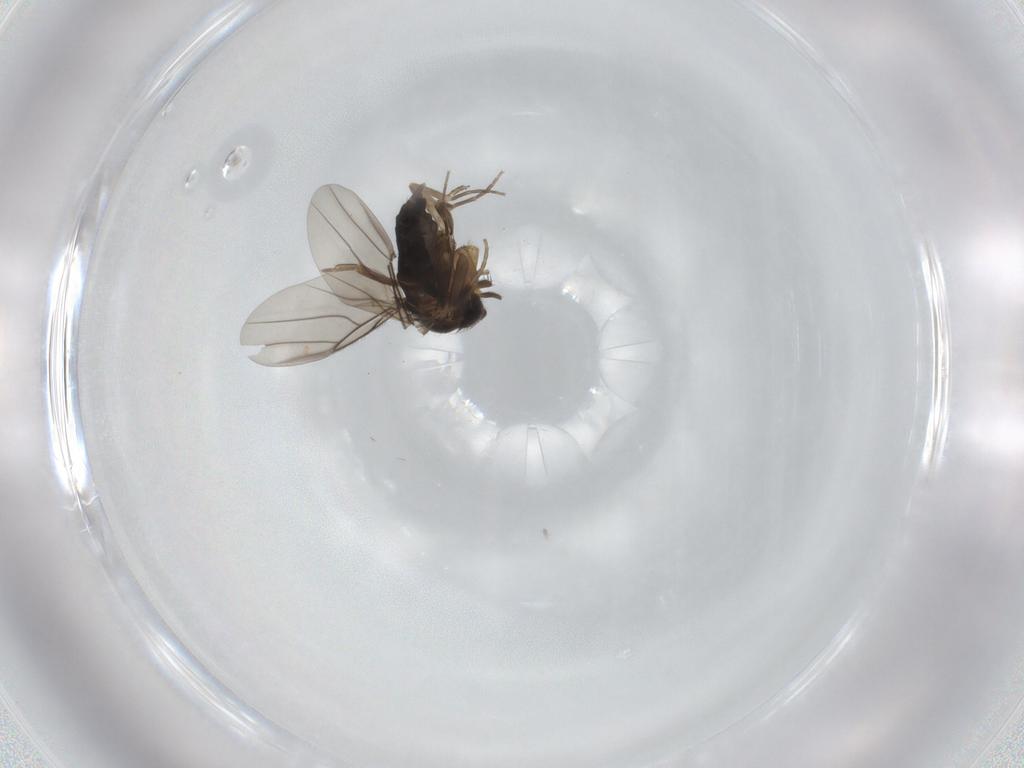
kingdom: Animalia
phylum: Arthropoda
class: Insecta
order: Diptera
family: Phoridae
